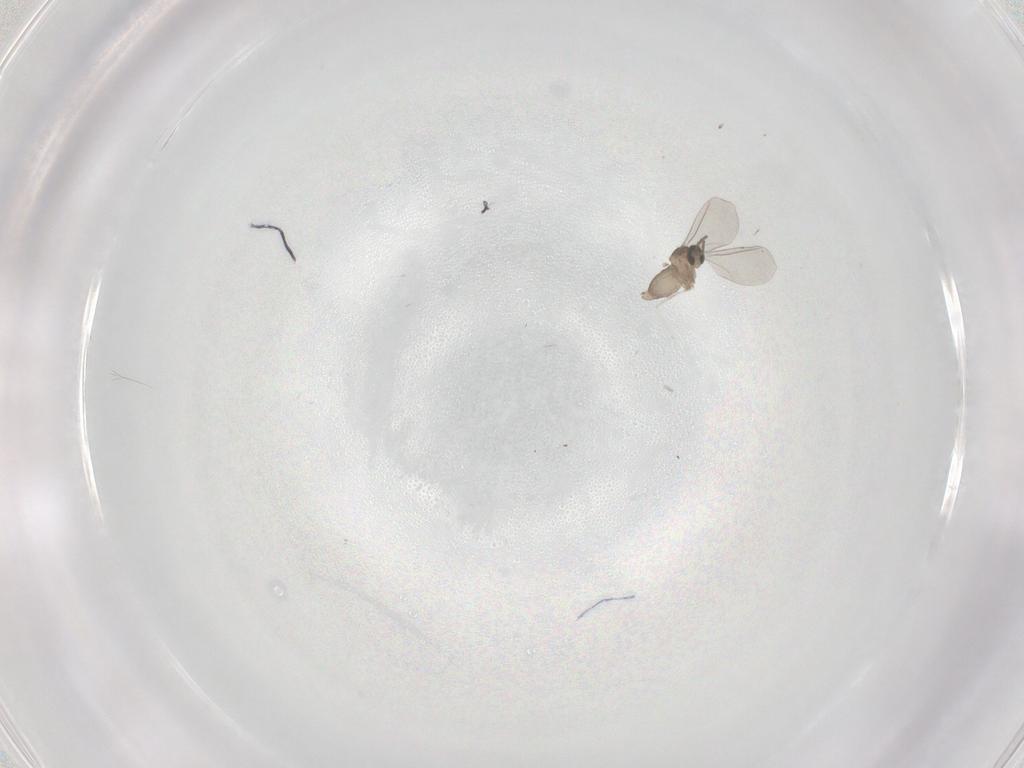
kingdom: Animalia
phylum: Arthropoda
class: Insecta
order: Diptera
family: Cecidomyiidae
